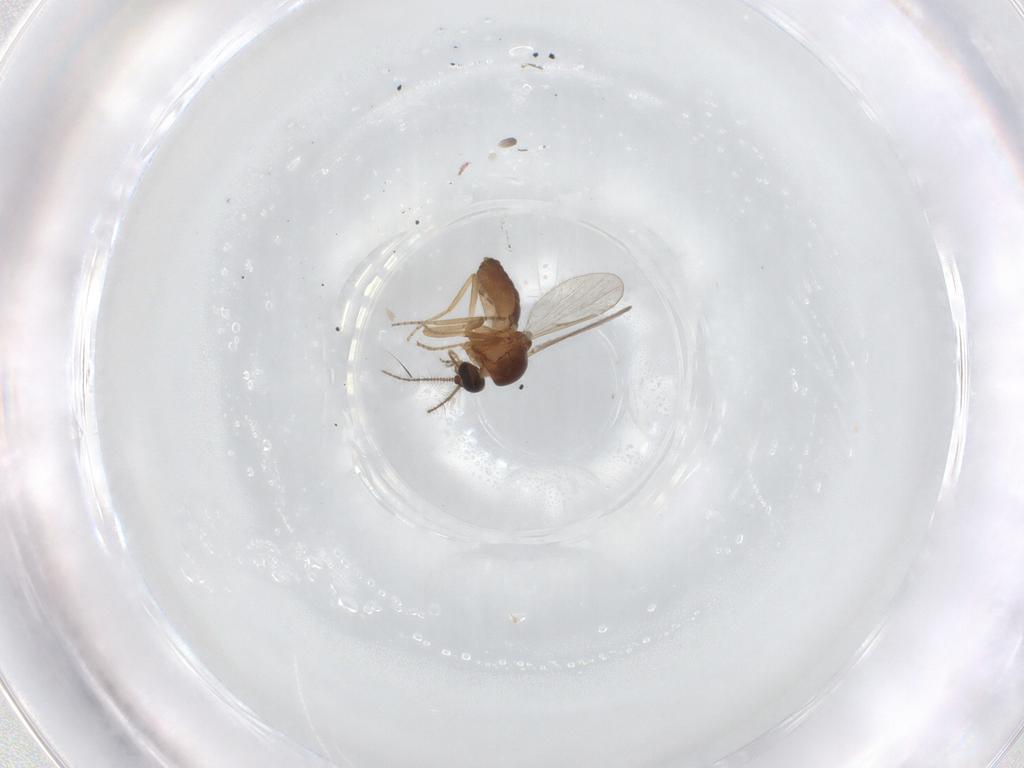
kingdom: Animalia
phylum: Arthropoda
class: Insecta
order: Diptera
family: Ceratopogonidae
